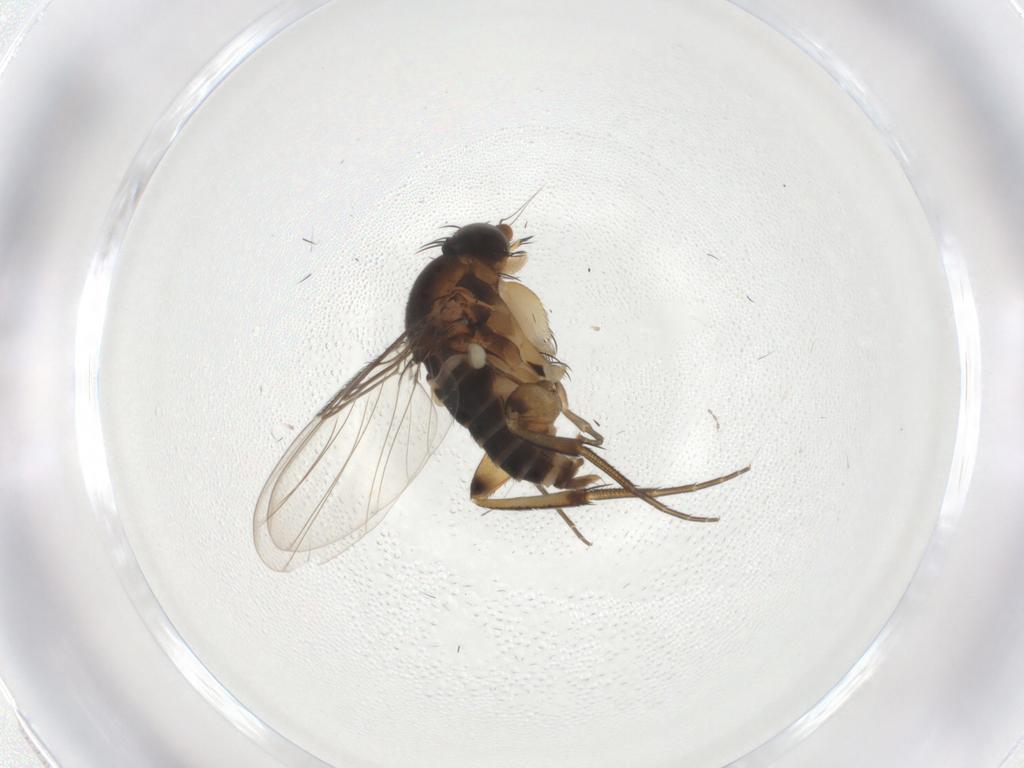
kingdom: Animalia
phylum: Arthropoda
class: Insecta
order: Diptera
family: Phoridae
